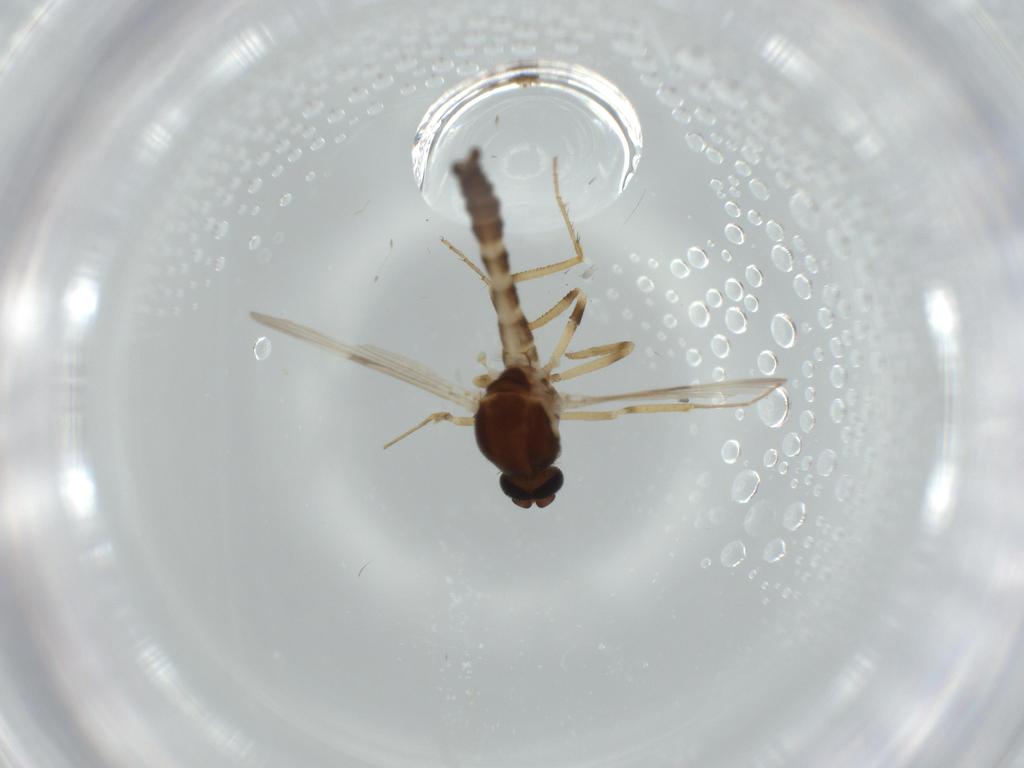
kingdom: Animalia
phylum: Arthropoda
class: Insecta
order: Diptera
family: Ceratopogonidae
